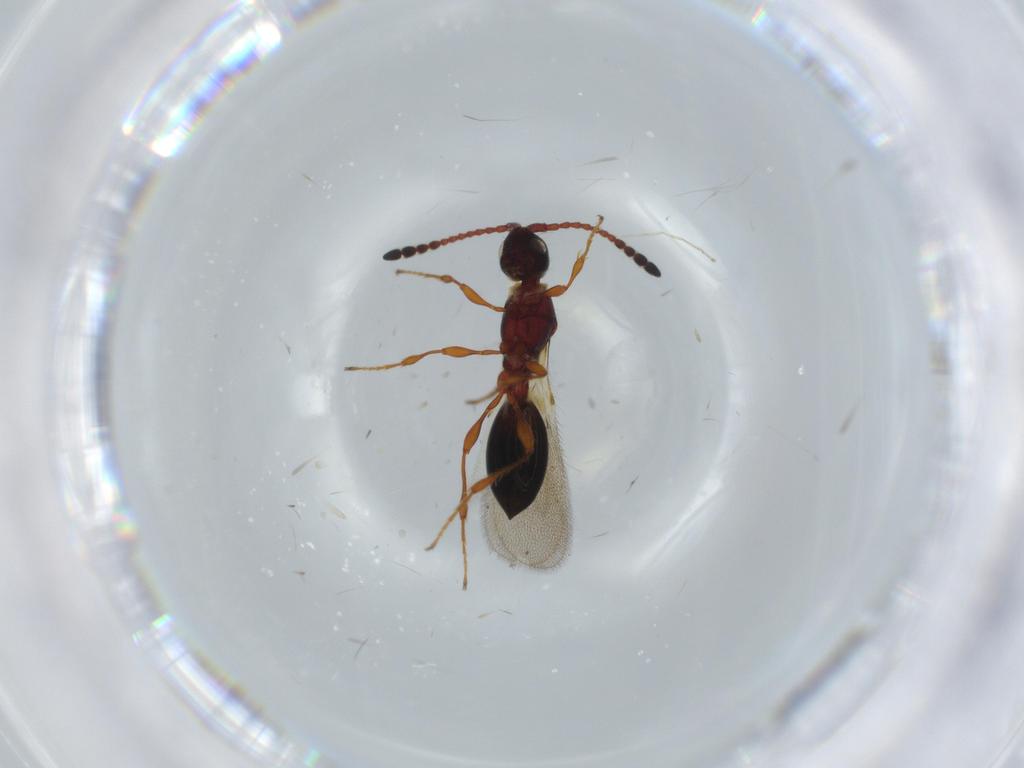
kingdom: Animalia
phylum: Arthropoda
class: Insecta
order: Hymenoptera
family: Diapriidae
